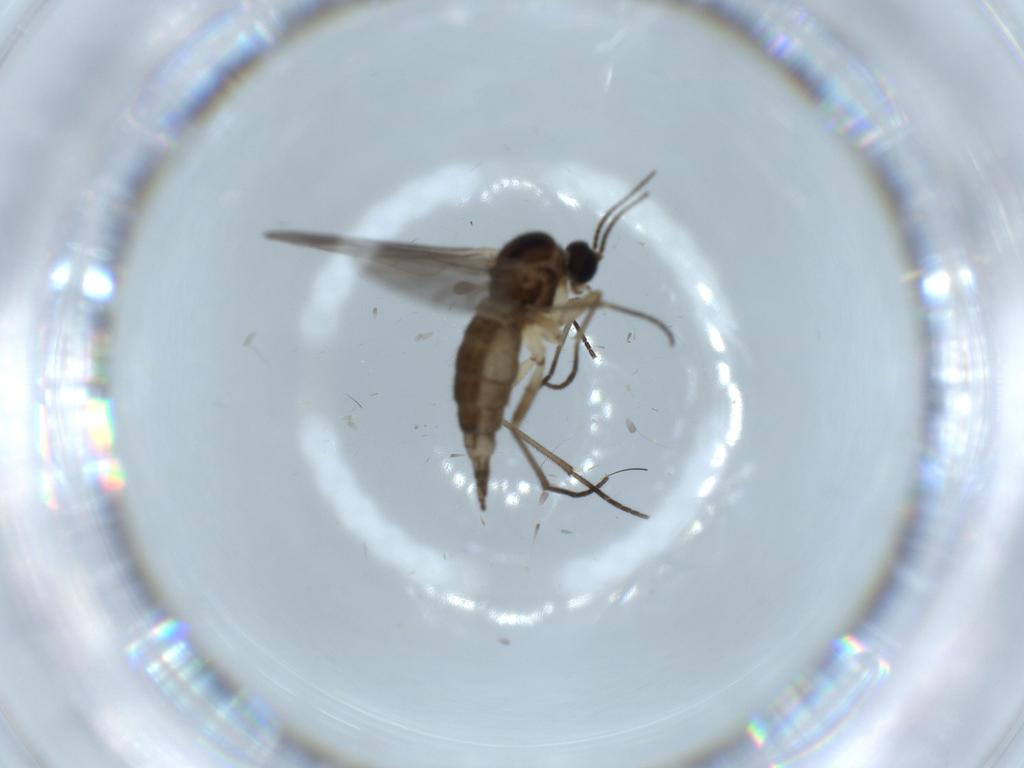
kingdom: Animalia
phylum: Arthropoda
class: Insecta
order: Diptera
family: Sciaridae
